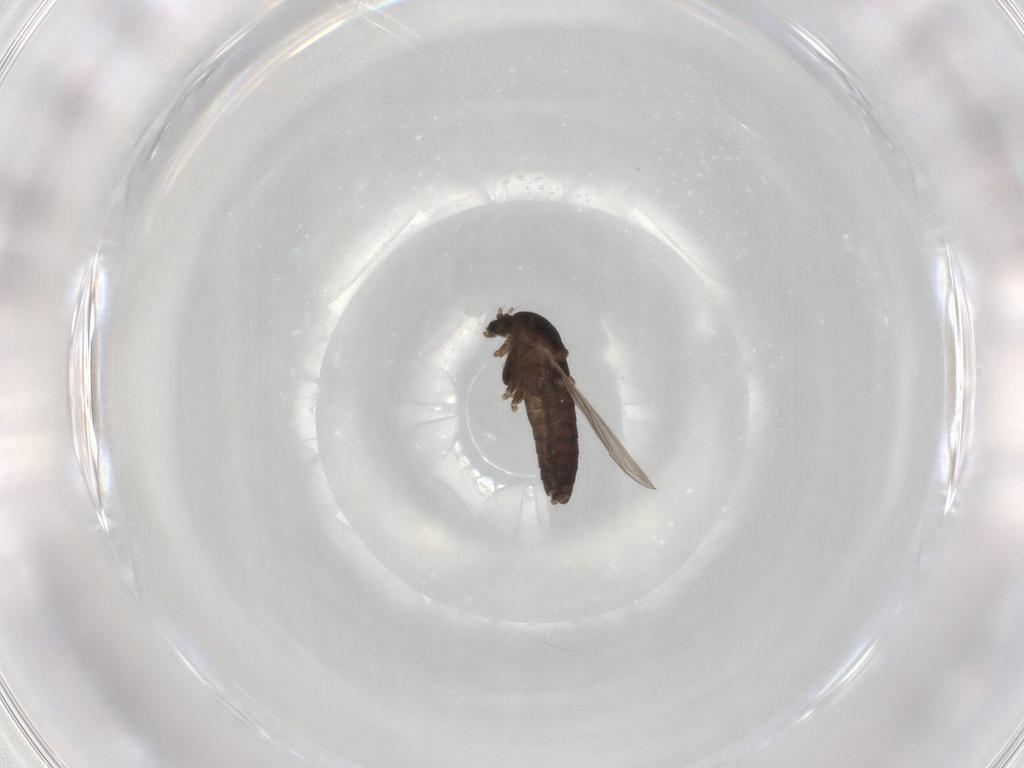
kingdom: Animalia
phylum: Arthropoda
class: Insecta
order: Diptera
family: Chironomidae
